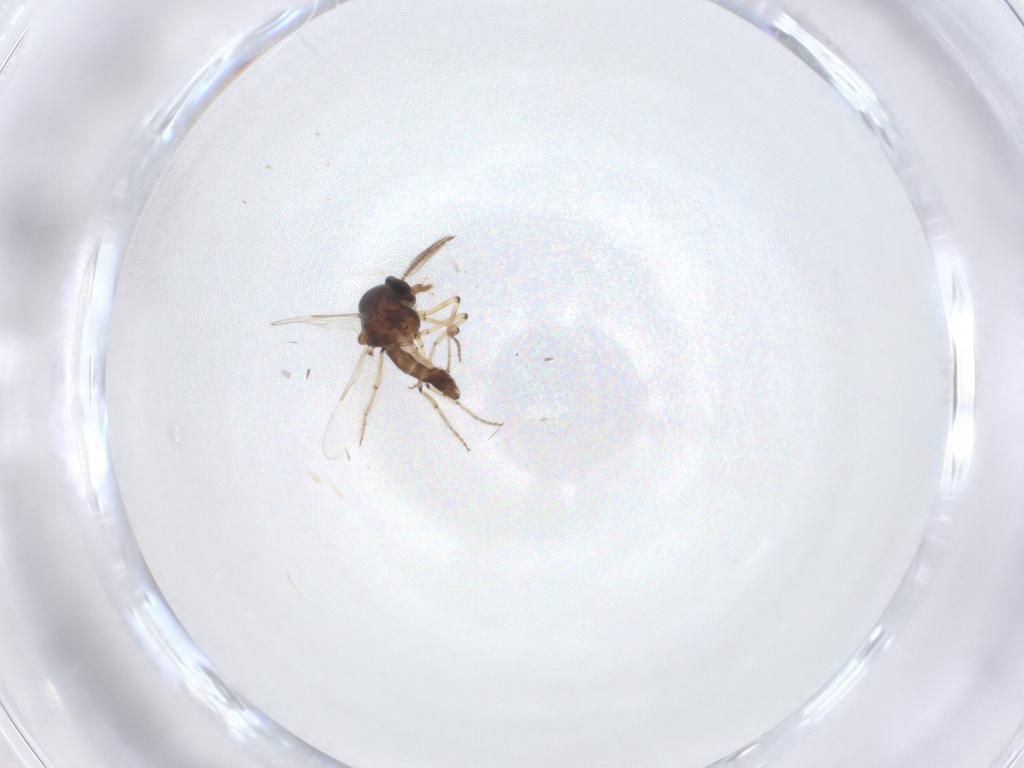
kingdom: Animalia
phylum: Arthropoda
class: Insecta
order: Diptera
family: Ceratopogonidae
